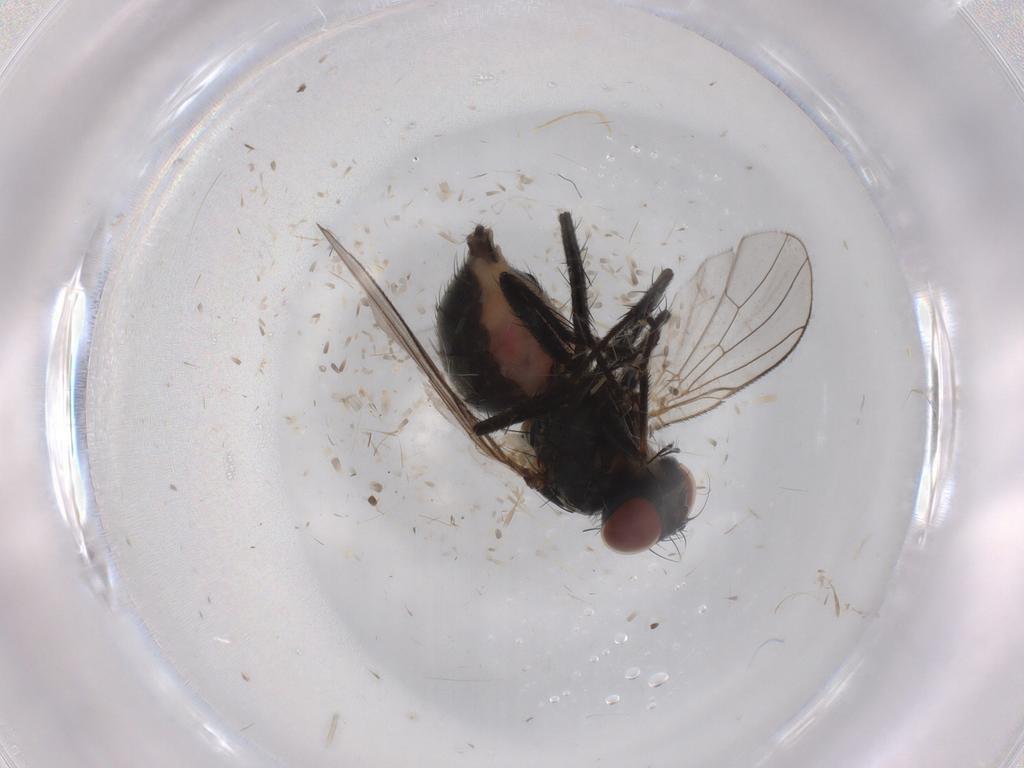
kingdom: Animalia
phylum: Arthropoda
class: Insecta
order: Diptera
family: Muscidae
